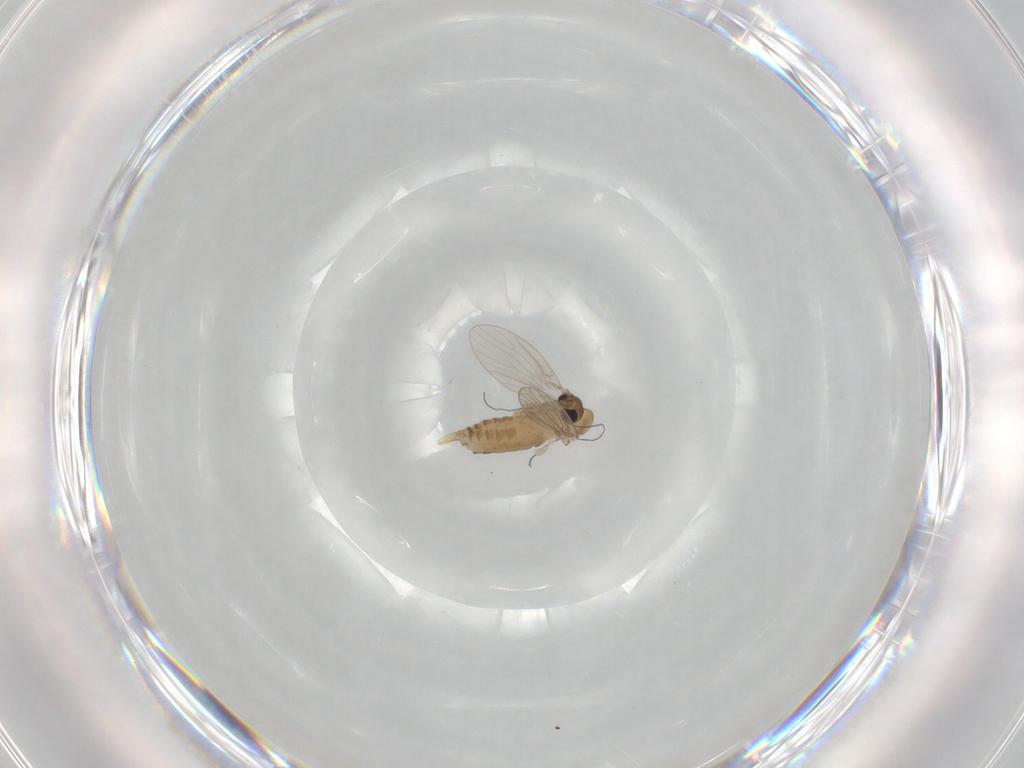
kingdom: Animalia
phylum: Arthropoda
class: Insecta
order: Diptera
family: Psychodidae
